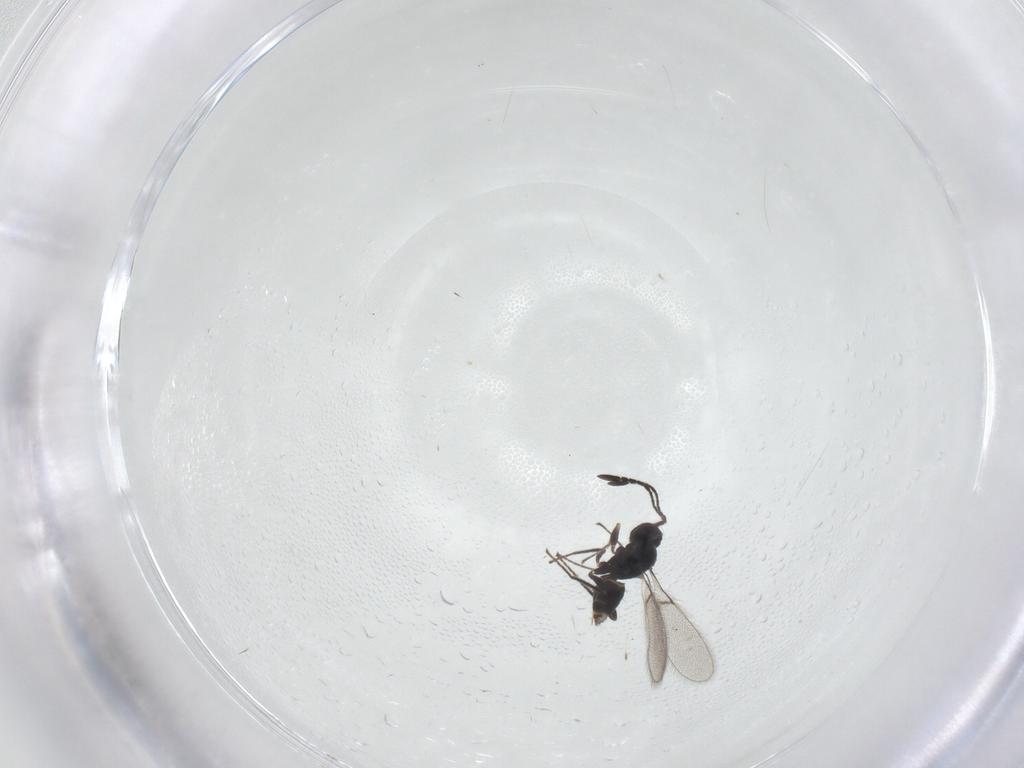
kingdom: Animalia
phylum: Arthropoda
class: Insecta
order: Hymenoptera
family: Mymaridae
